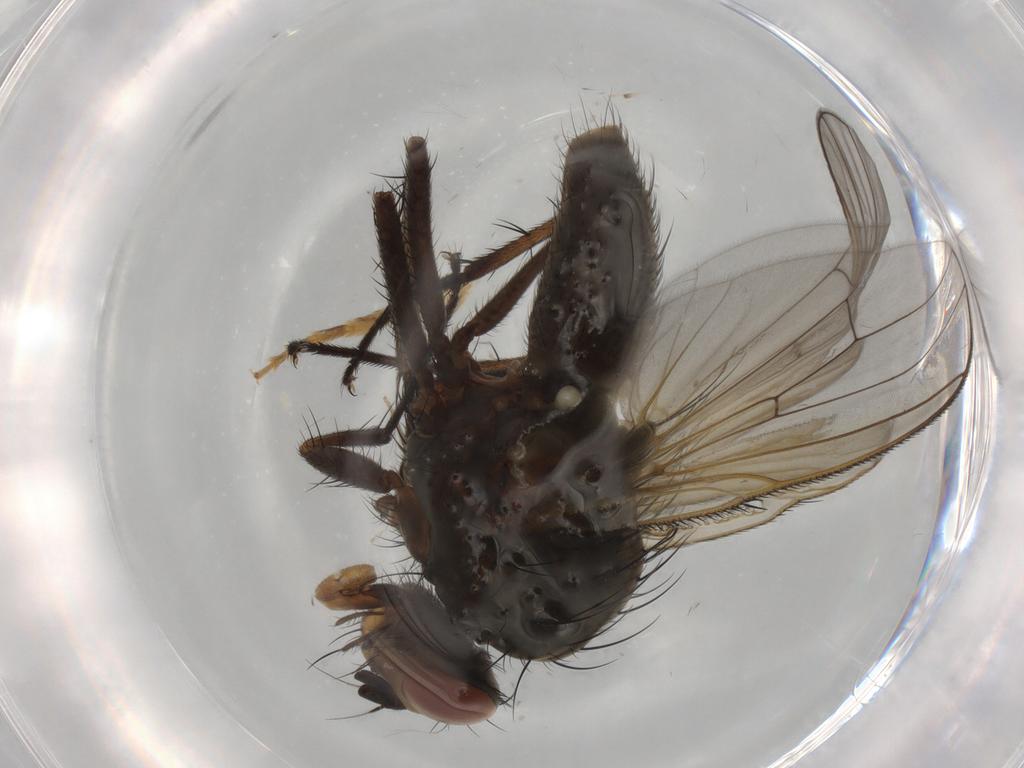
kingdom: Animalia
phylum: Arthropoda
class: Insecta
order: Diptera
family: Anthomyiidae
